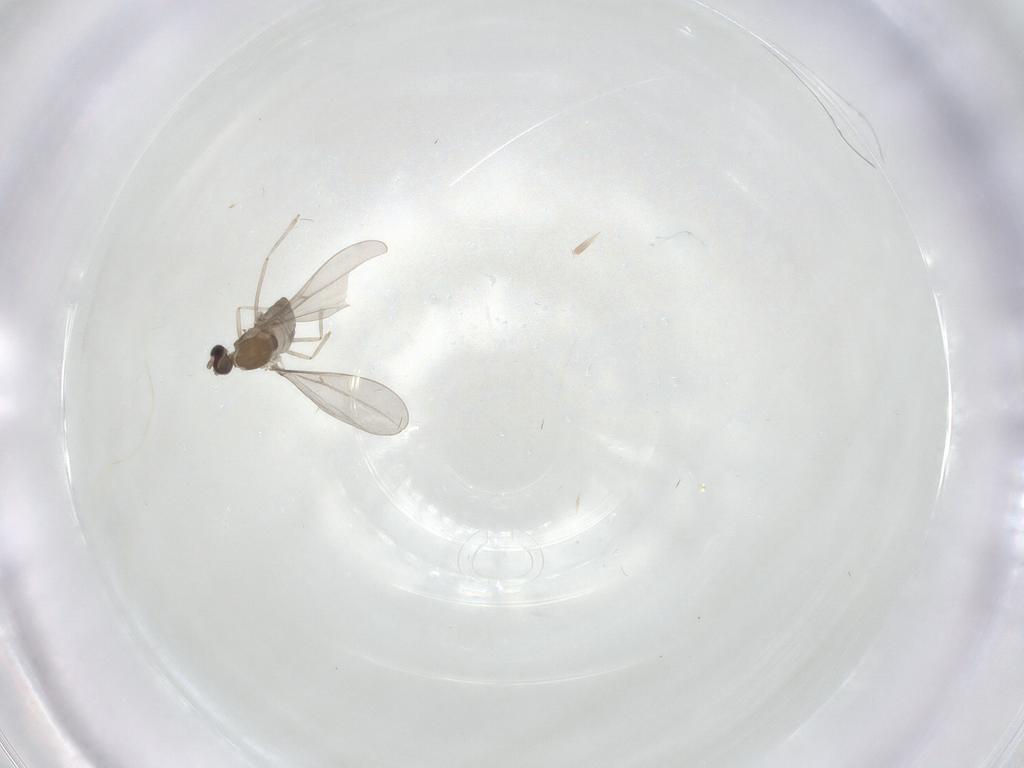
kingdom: Animalia
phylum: Arthropoda
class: Insecta
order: Diptera
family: Cecidomyiidae
